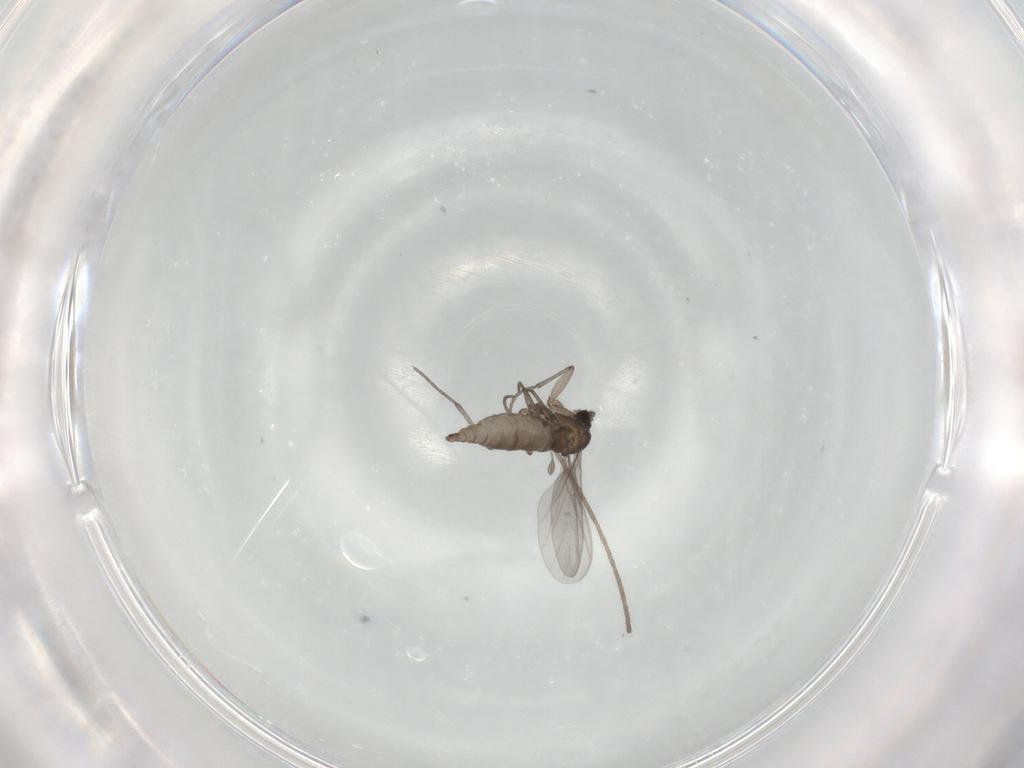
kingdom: Animalia
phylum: Arthropoda
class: Insecta
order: Diptera
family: Sciaridae
